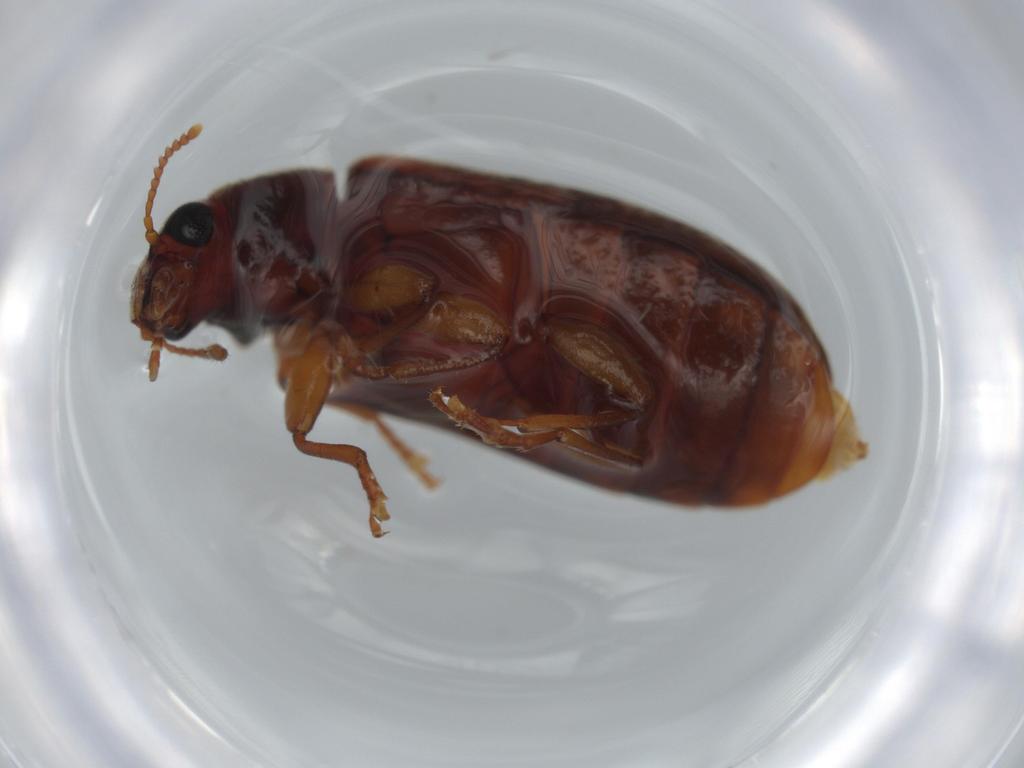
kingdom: Animalia
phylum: Arthropoda
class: Insecta
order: Coleoptera
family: Mycteridae
